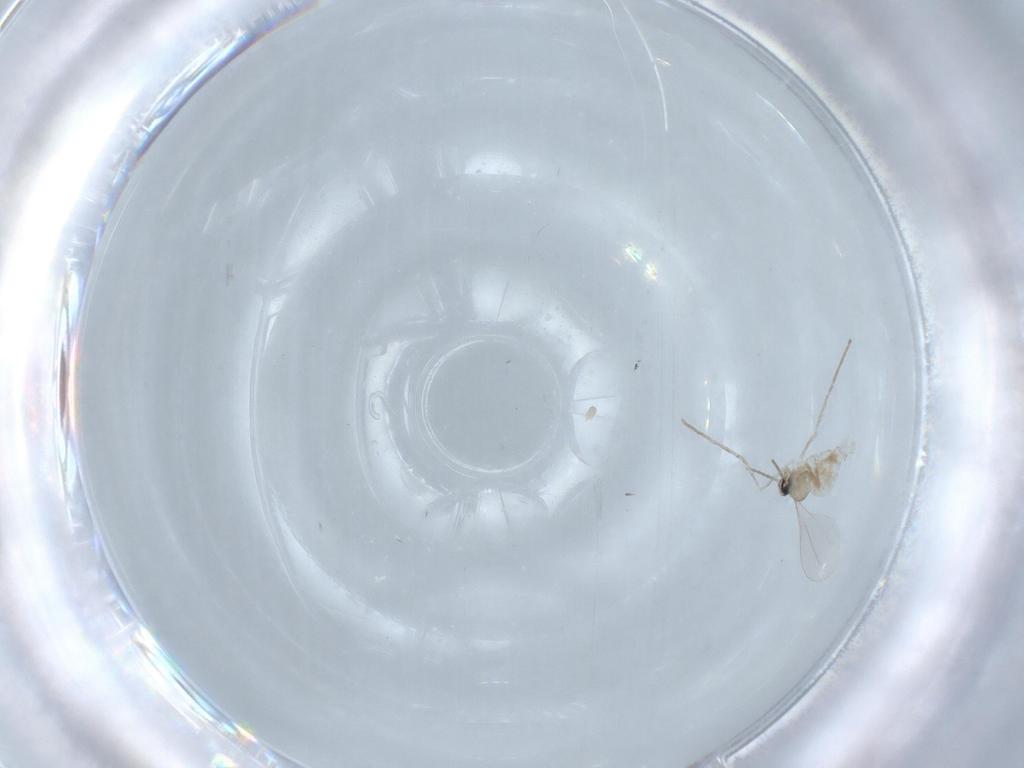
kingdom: Animalia
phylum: Arthropoda
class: Insecta
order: Diptera
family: Cecidomyiidae
